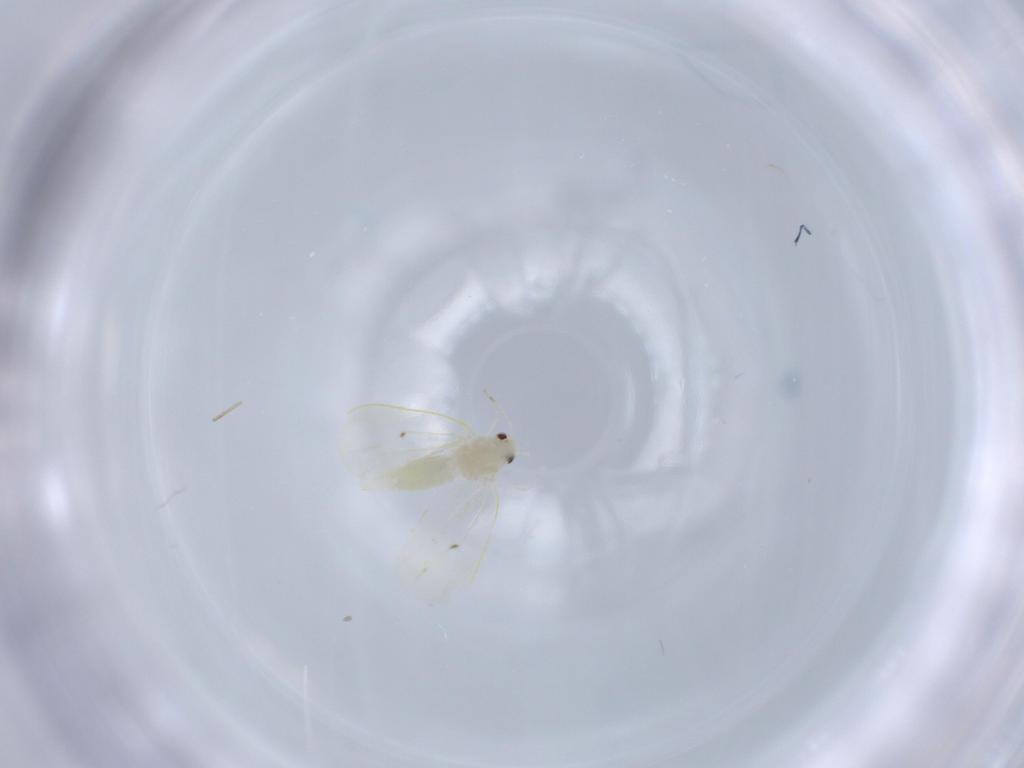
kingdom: Animalia
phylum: Arthropoda
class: Insecta
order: Hemiptera
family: Aleyrodidae
